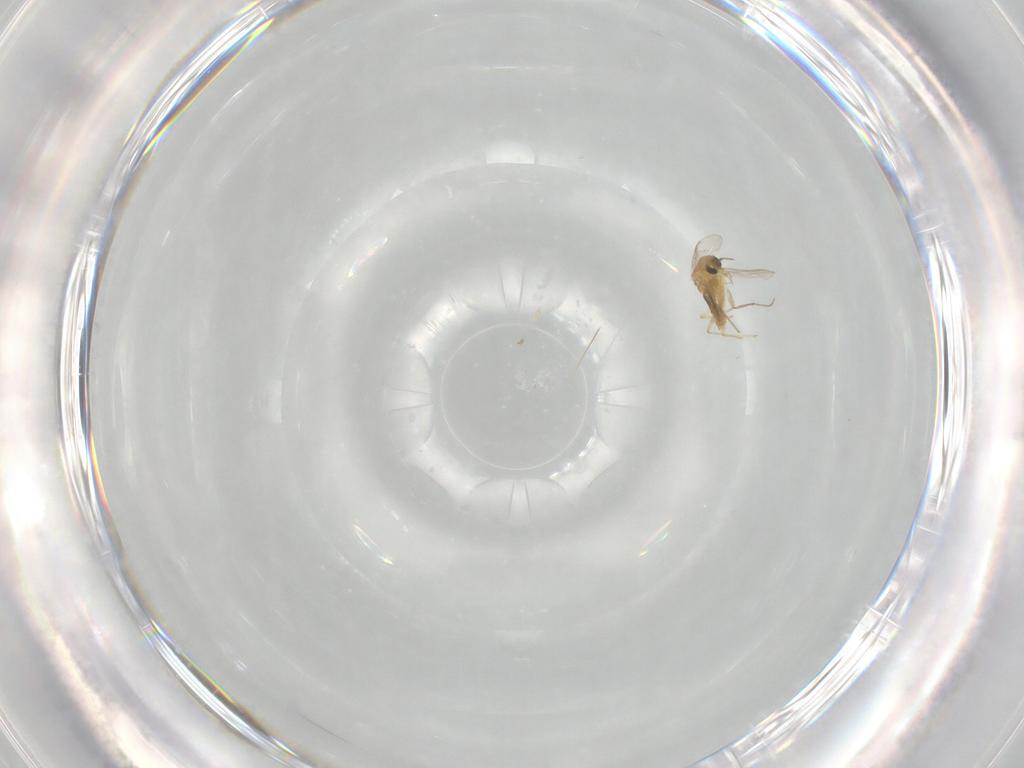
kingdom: Animalia
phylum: Arthropoda
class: Insecta
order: Diptera
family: Chironomidae
